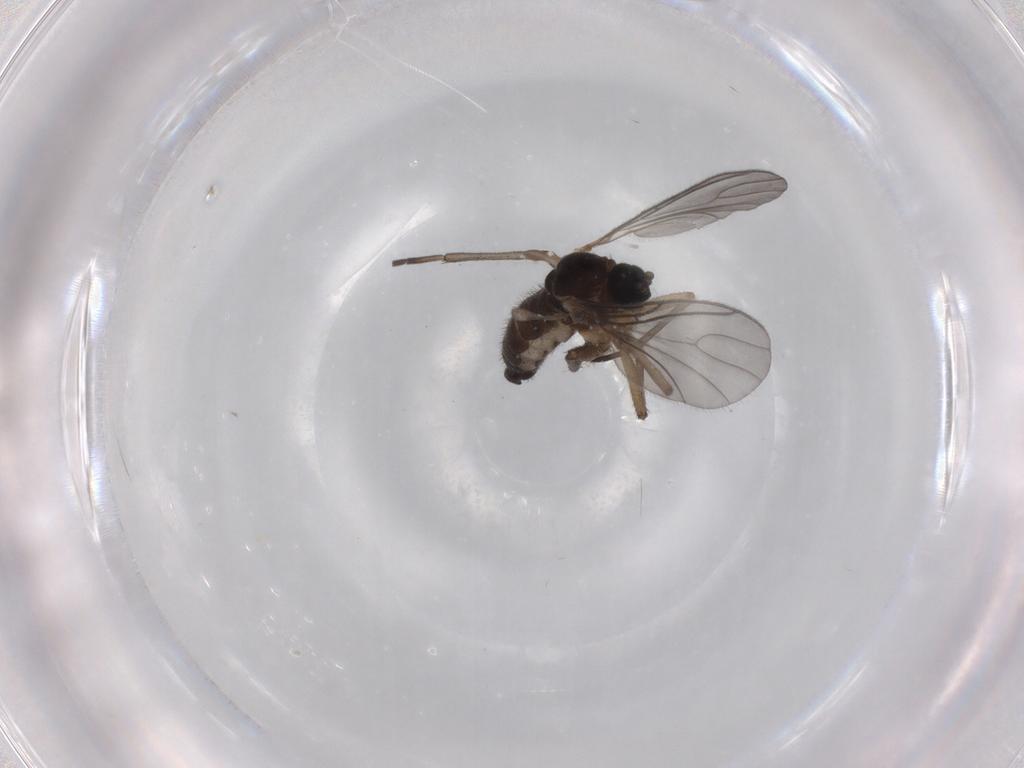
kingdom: Animalia
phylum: Arthropoda
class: Insecta
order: Diptera
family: Sciaridae
